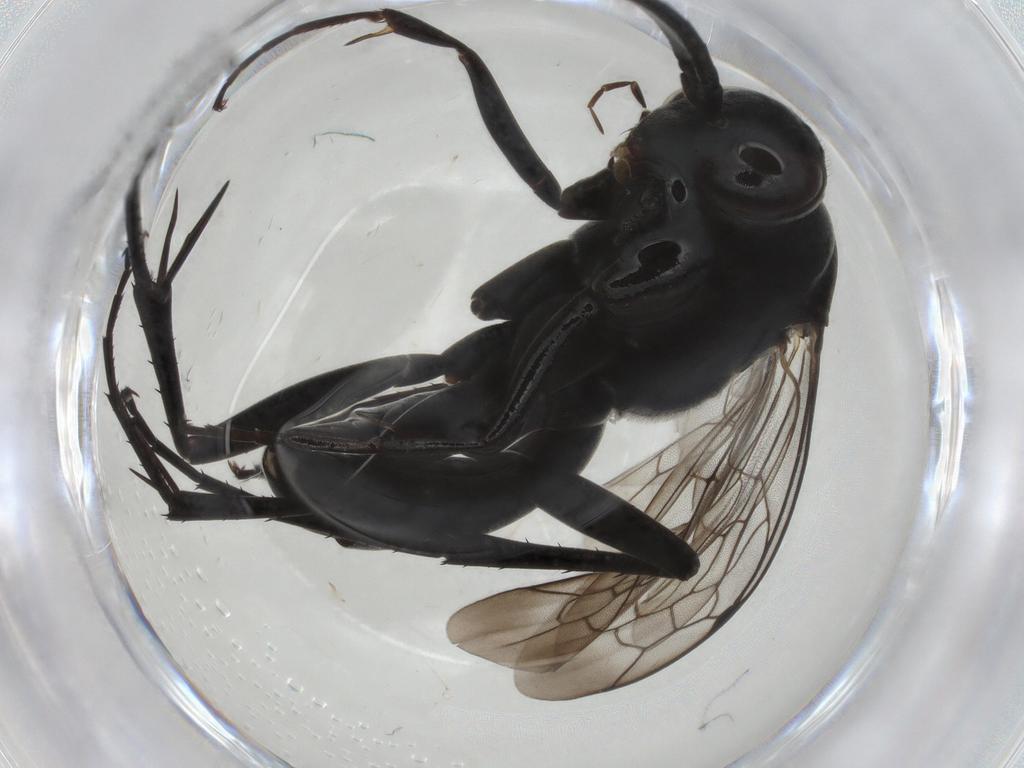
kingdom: Animalia
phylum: Arthropoda
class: Insecta
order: Hymenoptera
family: Pompilidae
